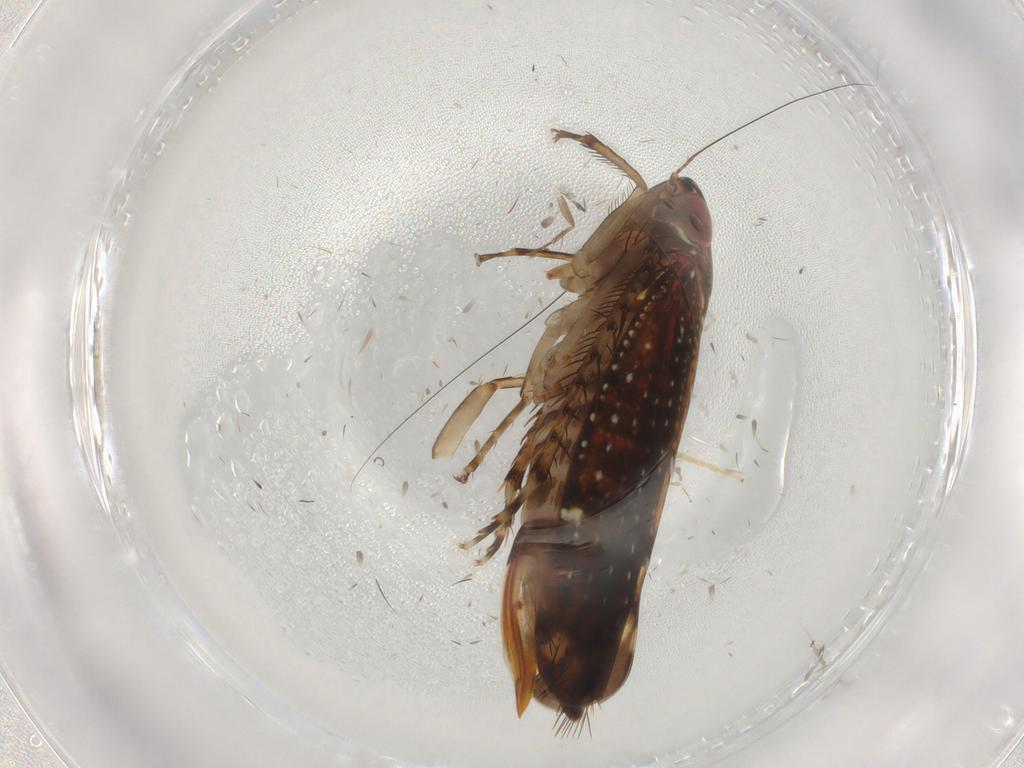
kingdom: Animalia
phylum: Arthropoda
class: Insecta
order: Hemiptera
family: Cicadellidae
